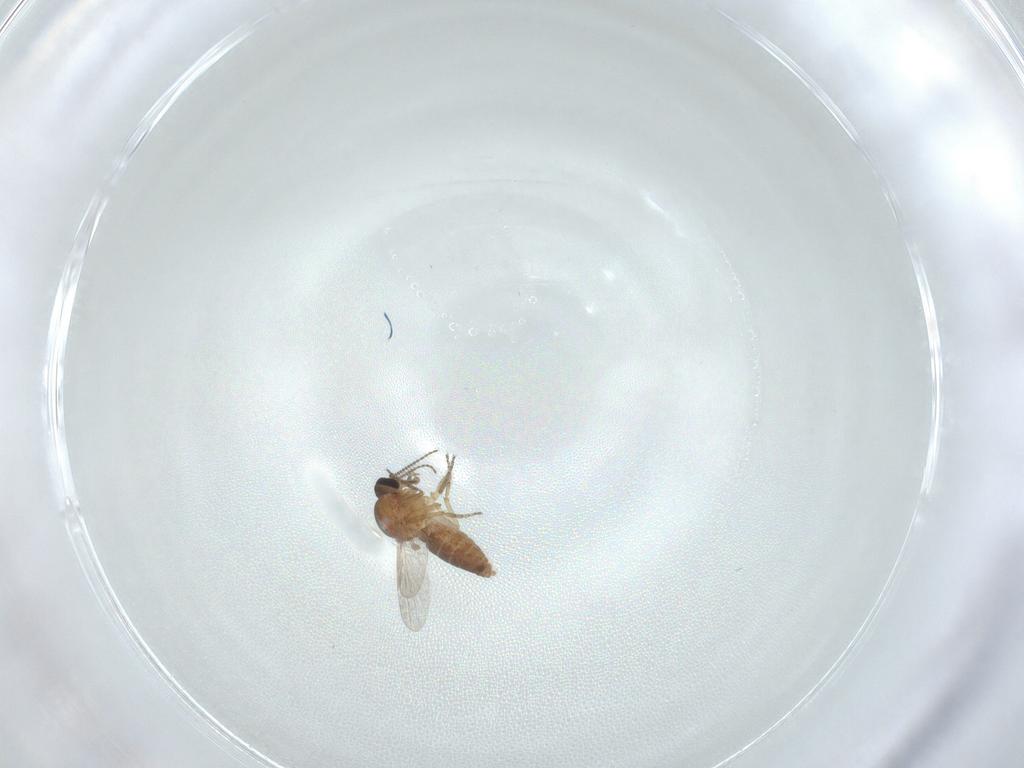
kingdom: Animalia
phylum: Arthropoda
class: Insecta
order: Diptera
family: Ceratopogonidae
